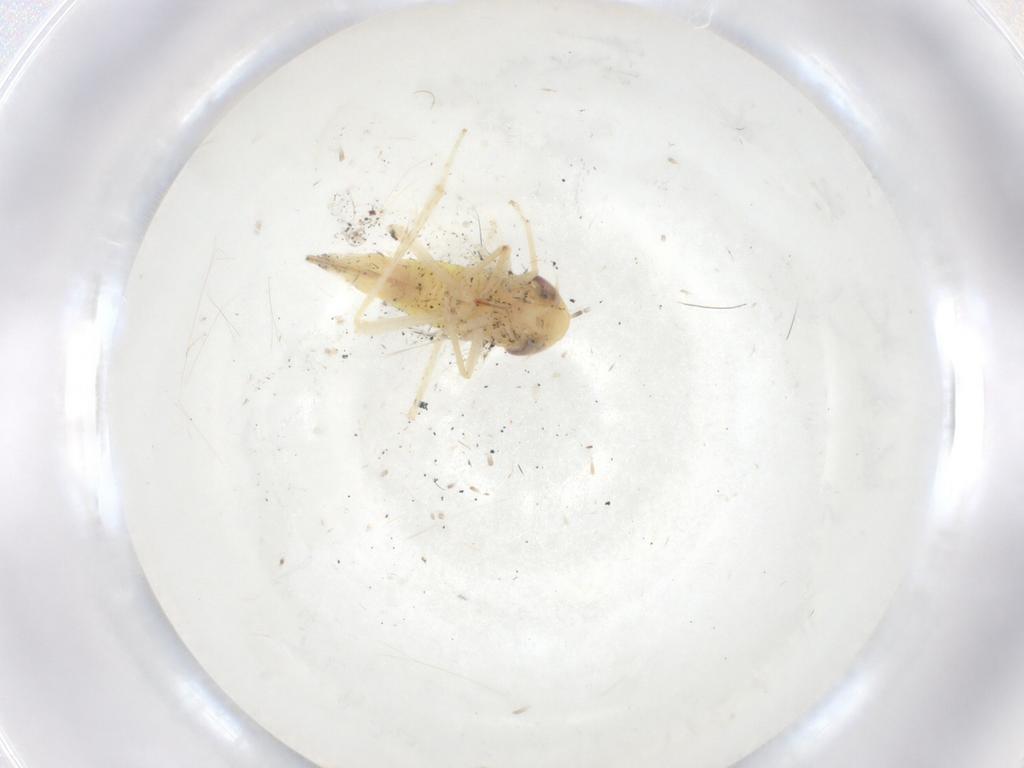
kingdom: Animalia
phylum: Arthropoda
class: Insecta
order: Hemiptera
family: Cicadellidae
